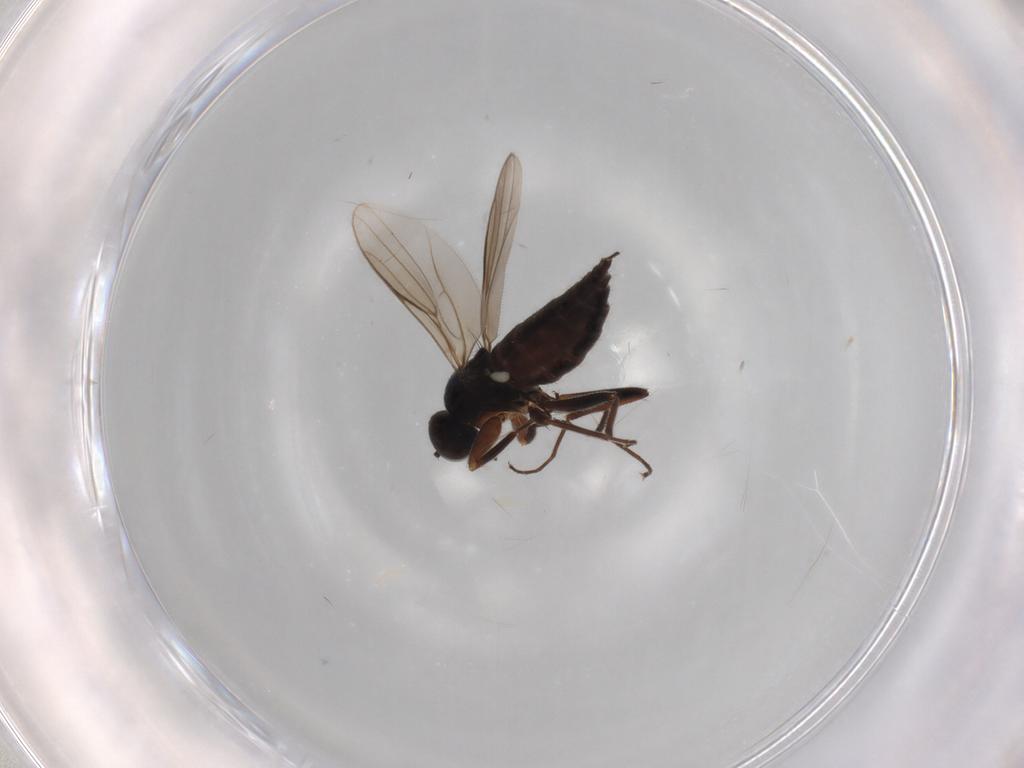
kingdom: Animalia
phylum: Arthropoda
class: Insecta
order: Diptera
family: Hybotidae
